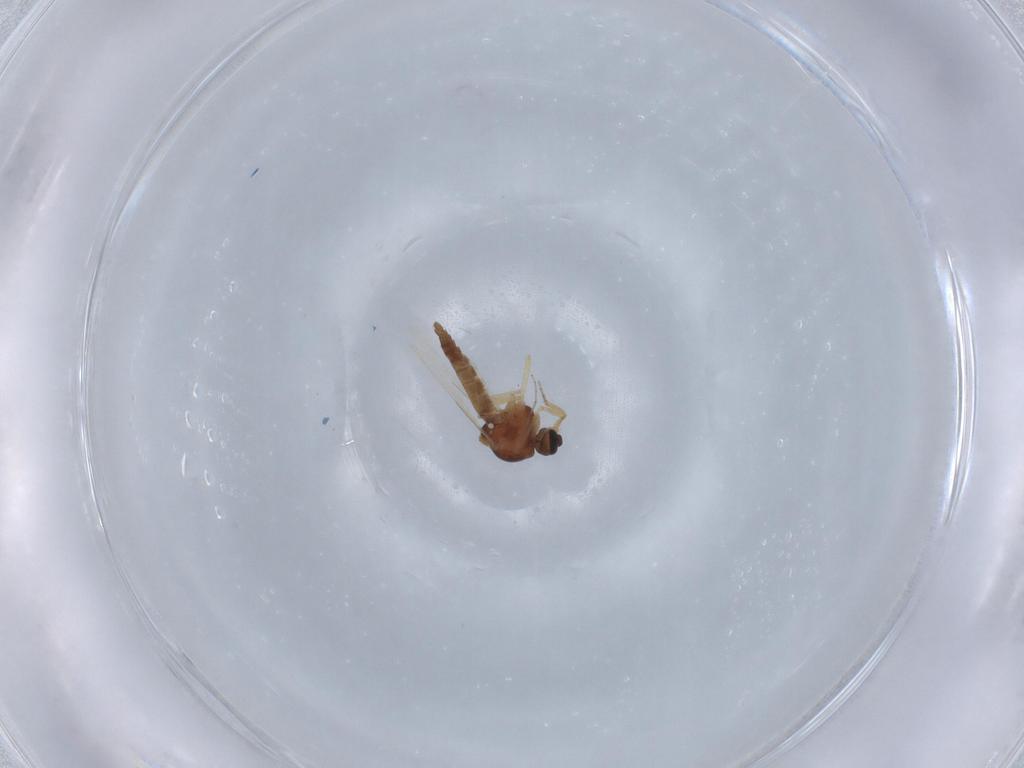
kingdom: Animalia
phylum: Arthropoda
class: Insecta
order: Diptera
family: Ceratopogonidae
